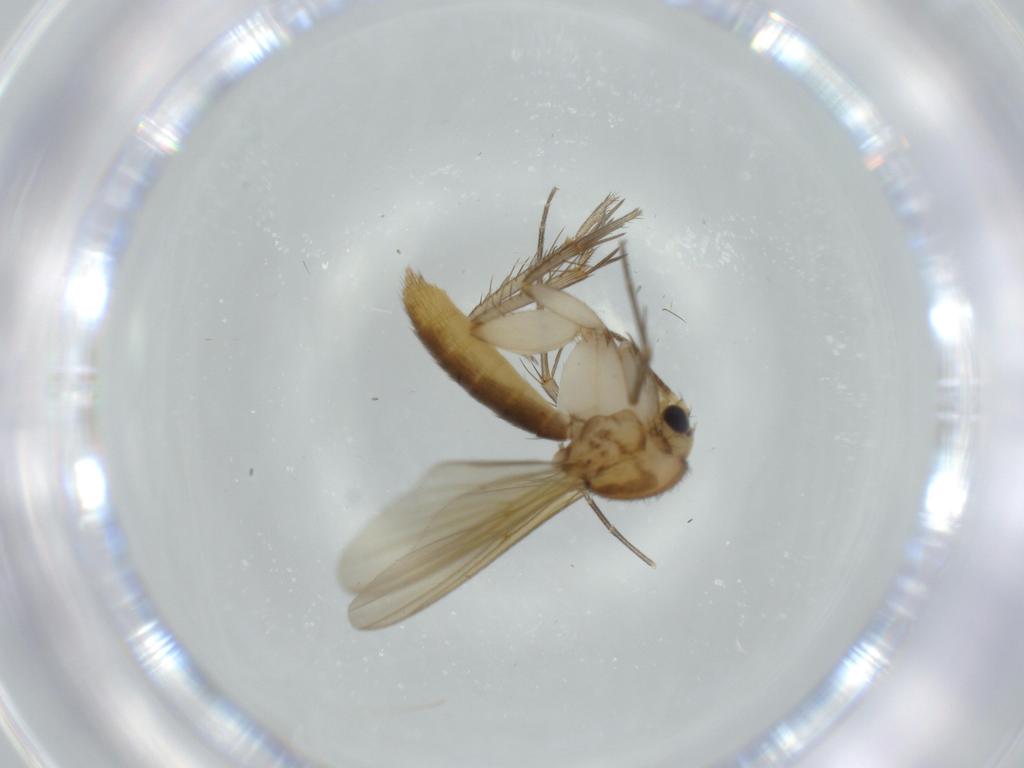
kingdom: Animalia
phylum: Arthropoda
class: Insecta
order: Diptera
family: Mycetophilidae
